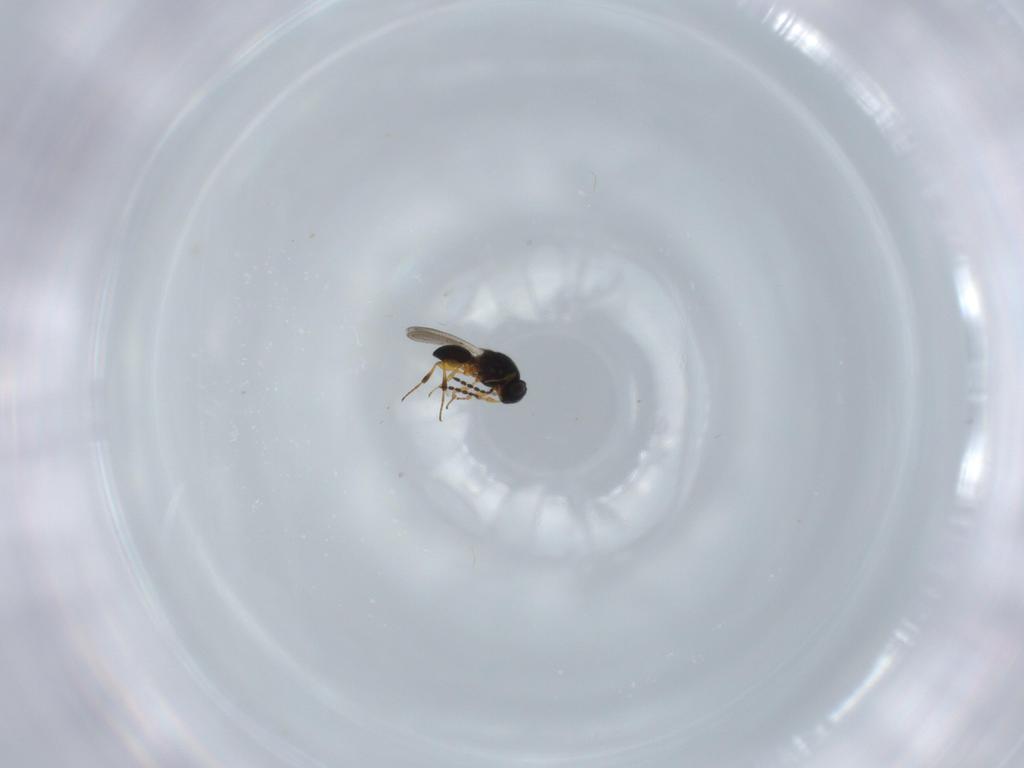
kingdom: Animalia
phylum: Arthropoda
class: Insecta
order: Hymenoptera
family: Platygastridae
